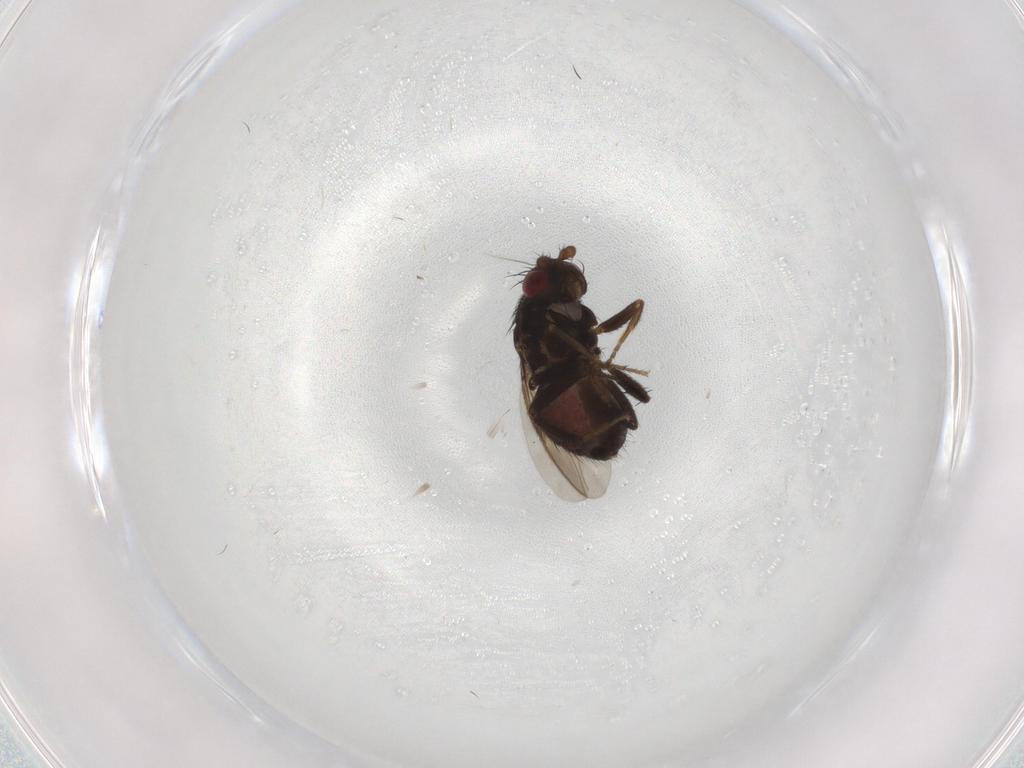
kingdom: Animalia
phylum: Arthropoda
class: Insecta
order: Diptera
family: Sphaeroceridae
